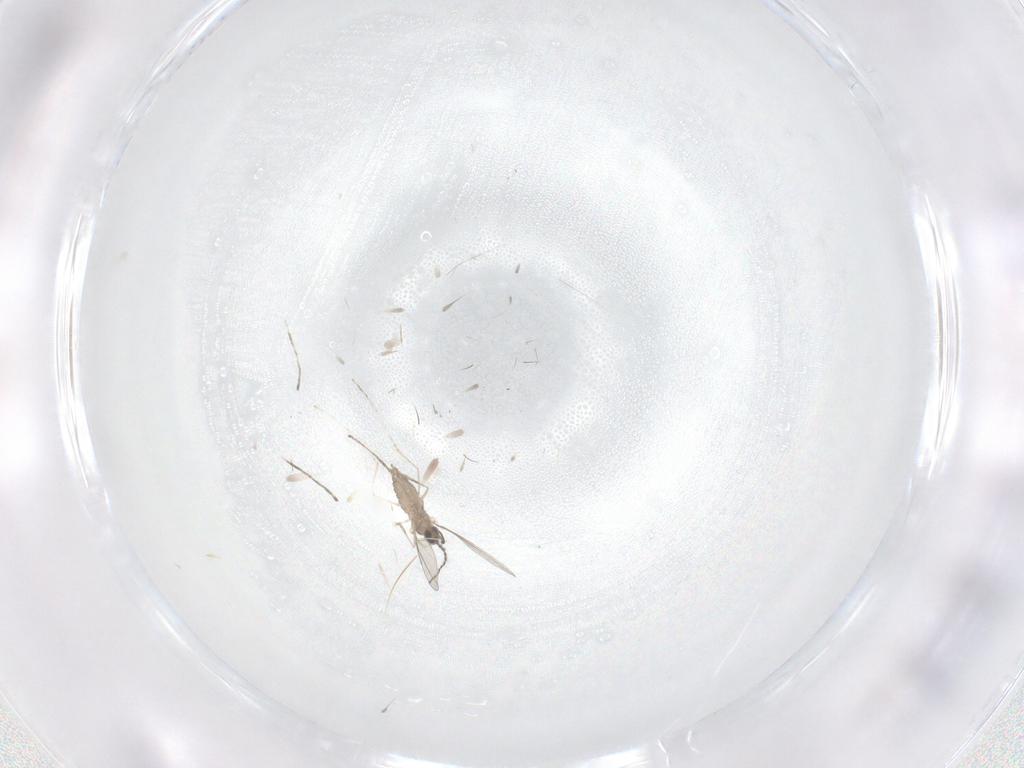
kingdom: Animalia
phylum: Arthropoda
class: Insecta
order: Diptera
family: Cecidomyiidae
